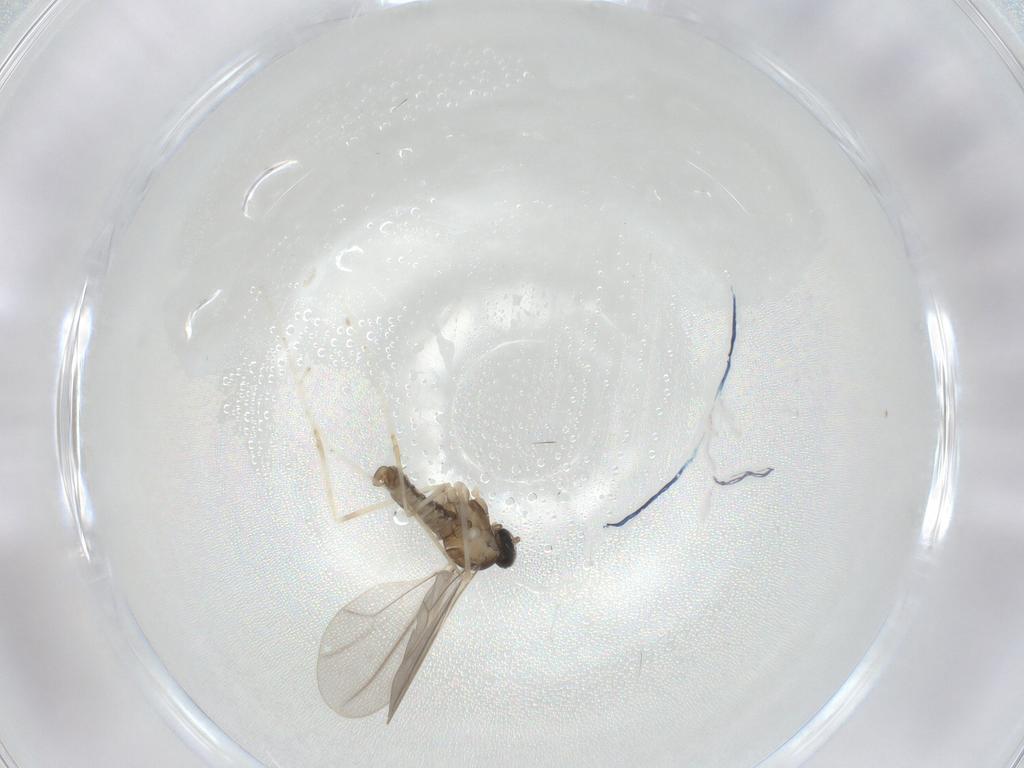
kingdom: Animalia
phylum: Arthropoda
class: Insecta
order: Diptera
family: Cecidomyiidae
